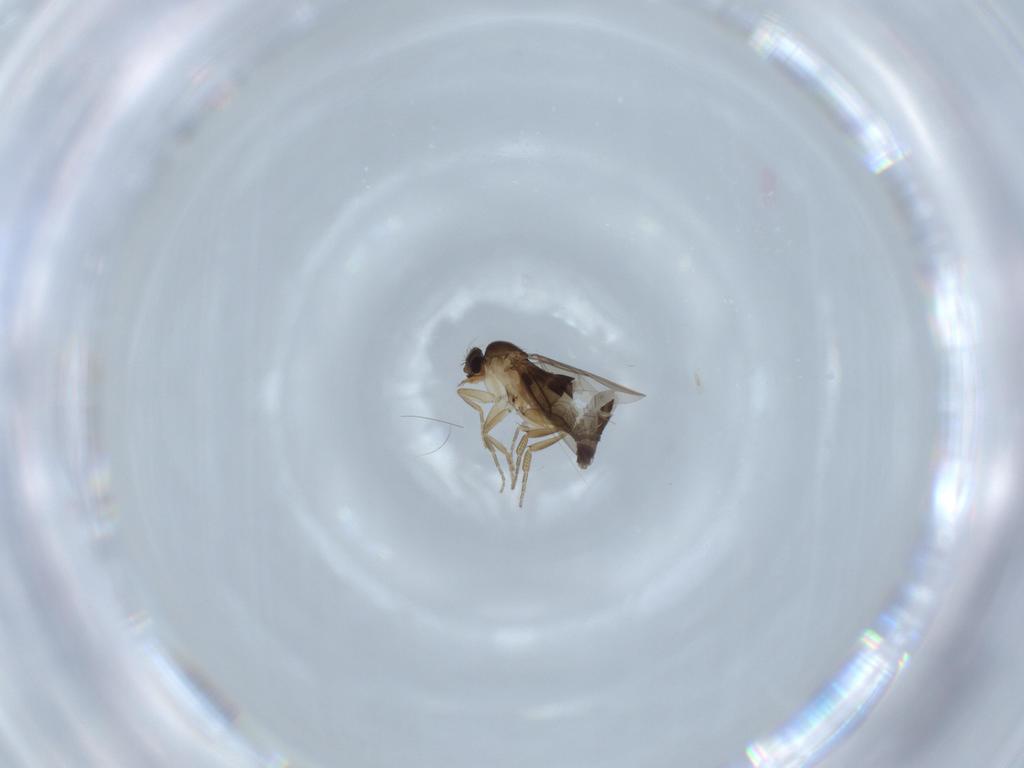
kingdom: Animalia
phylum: Arthropoda
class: Insecta
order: Diptera
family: Phoridae
